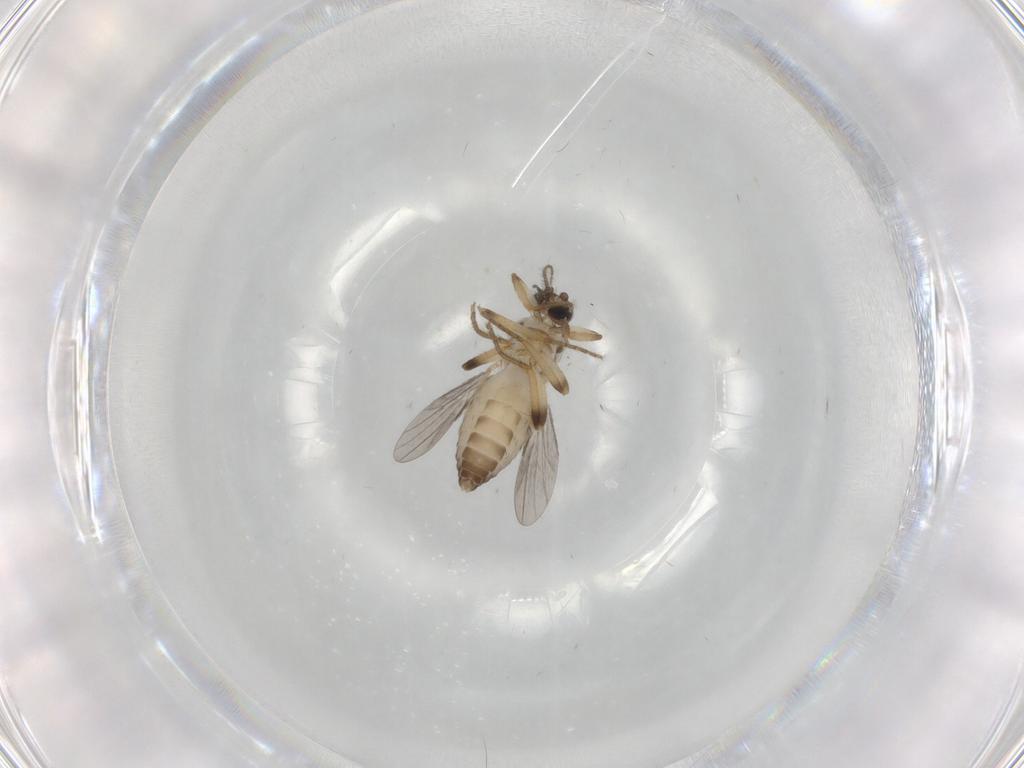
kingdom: Animalia
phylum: Arthropoda
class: Insecta
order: Diptera
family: Ceratopogonidae
